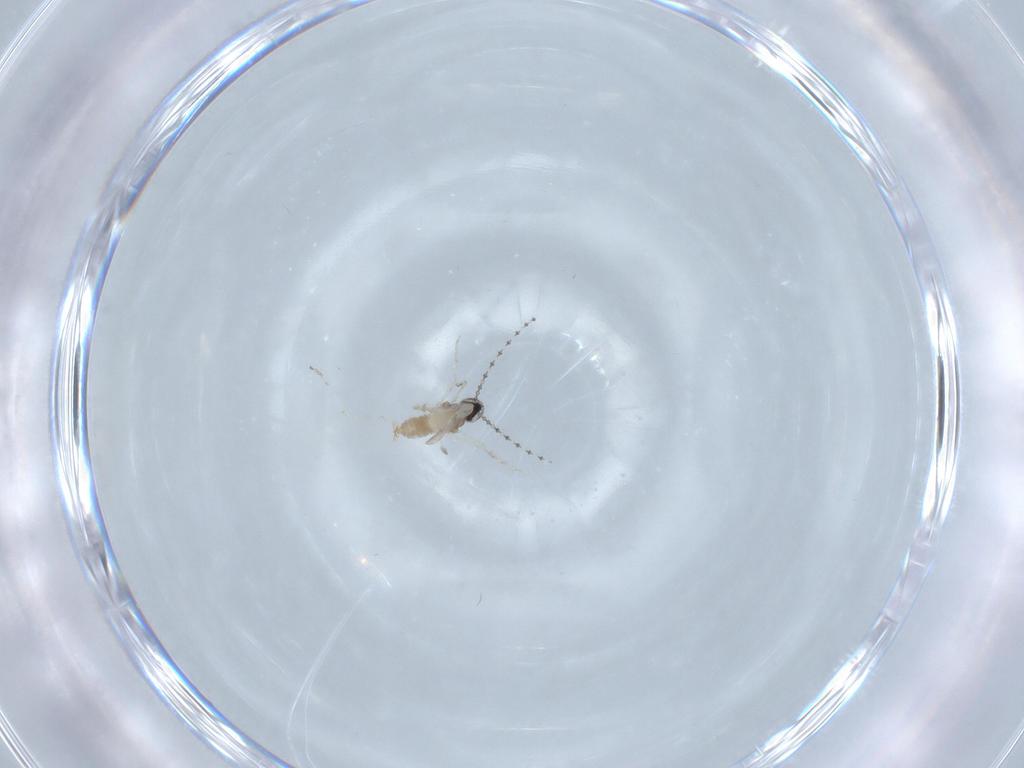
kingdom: Animalia
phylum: Arthropoda
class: Insecta
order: Diptera
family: Cecidomyiidae
